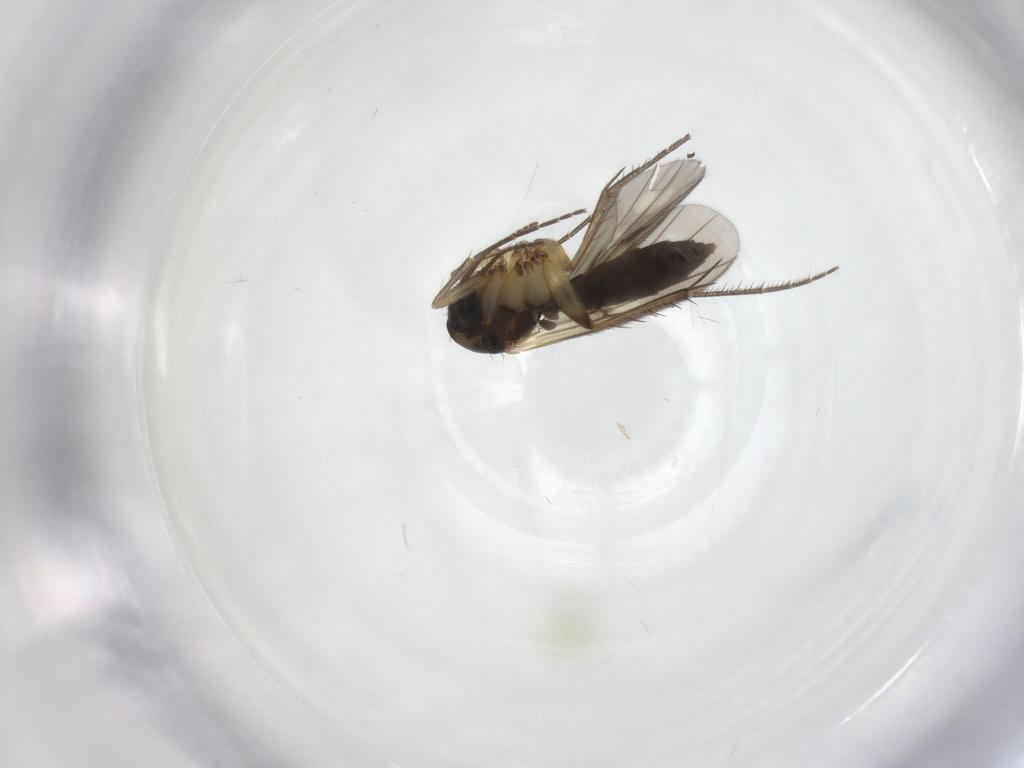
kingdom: Animalia
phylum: Arthropoda
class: Insecta
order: Diptera
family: Mycetophilidae
